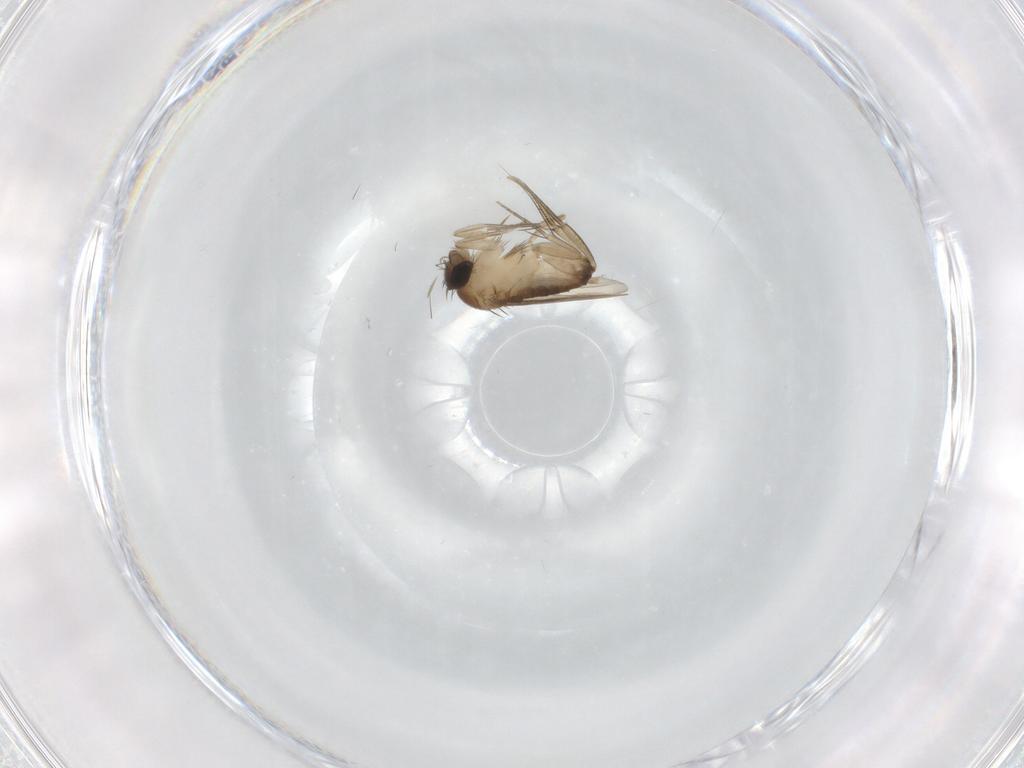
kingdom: Animalia
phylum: Arthropoda
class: Insecta
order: Diptera
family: Phoridae
